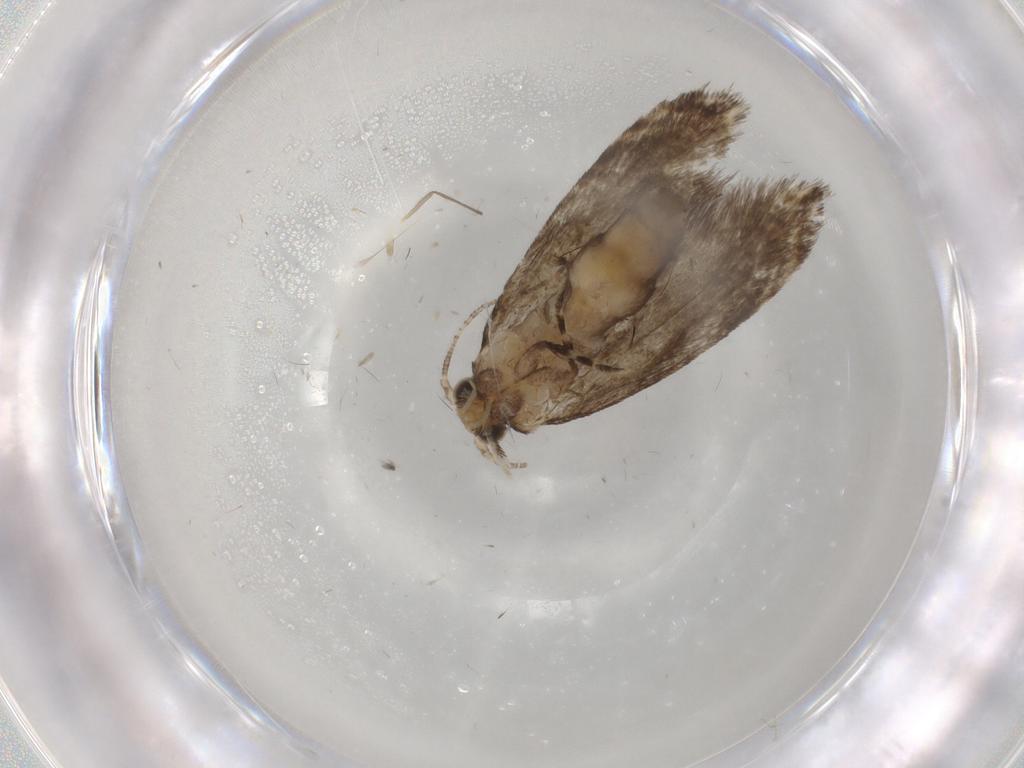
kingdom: Animalia
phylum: Arthropoda
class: Insecta
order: Lepidoptera
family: Tineidae
